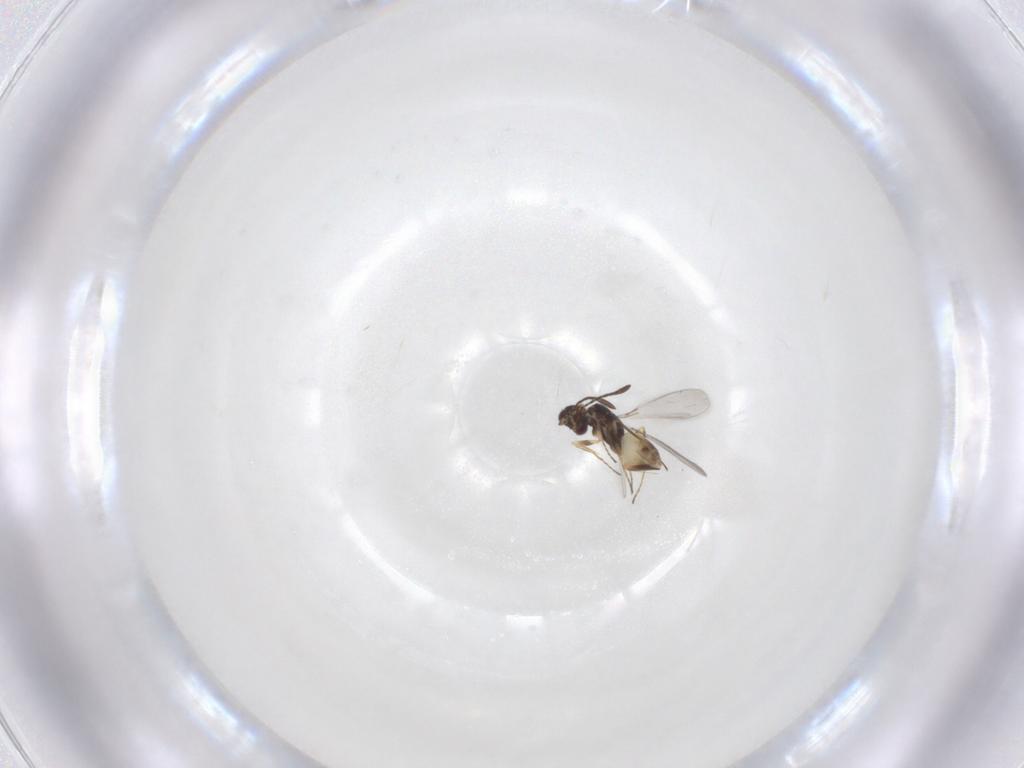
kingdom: Animalia
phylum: Arthropoda
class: Insecta
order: Hymenoptera
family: Mymaridae
